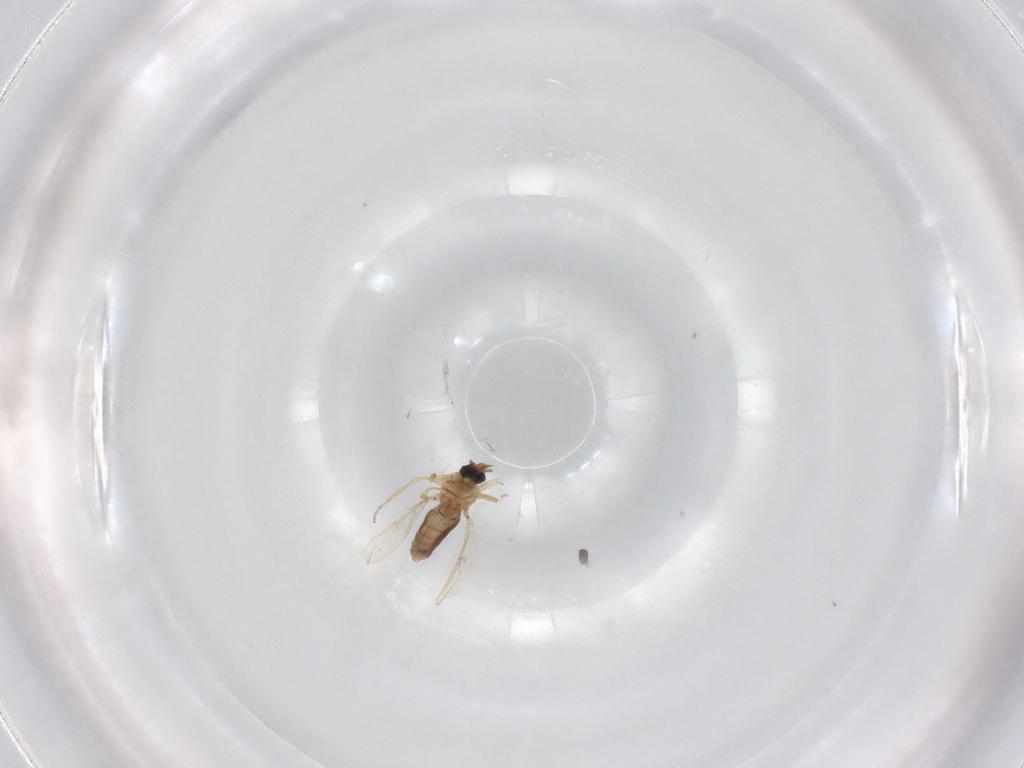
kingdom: Animalia
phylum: Arthropoda
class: Insecta
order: Diptera
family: Ceratopogonidae
